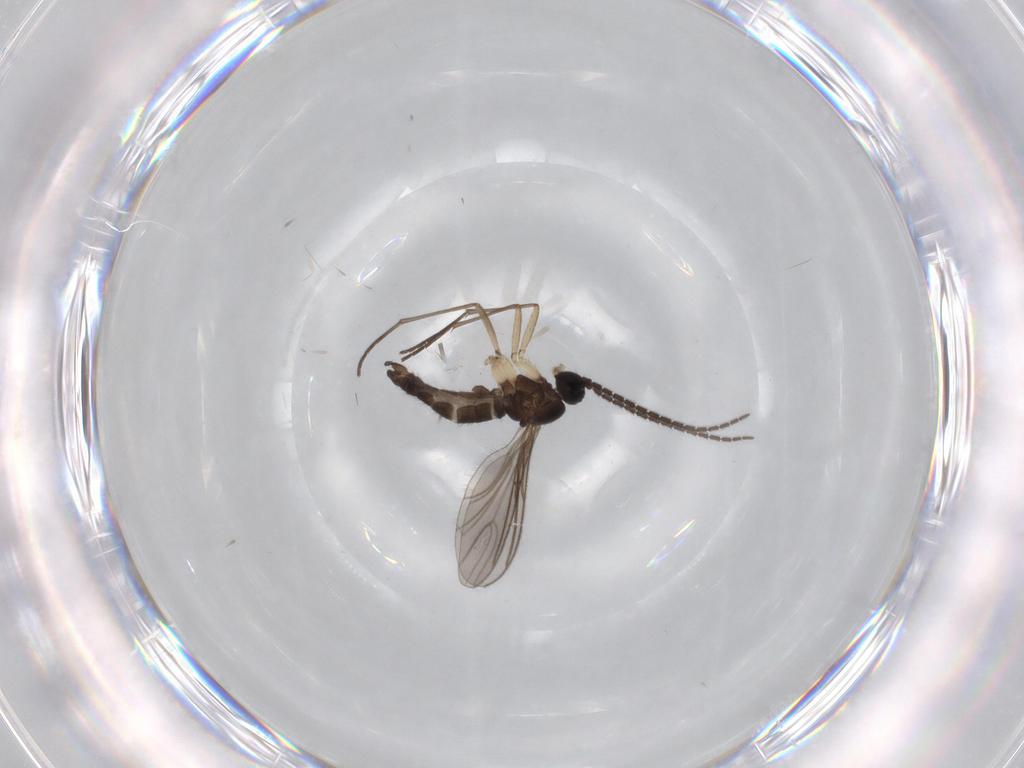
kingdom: Animalia
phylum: Arthropoda
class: Insecta
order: Diptera
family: Sciaridae
